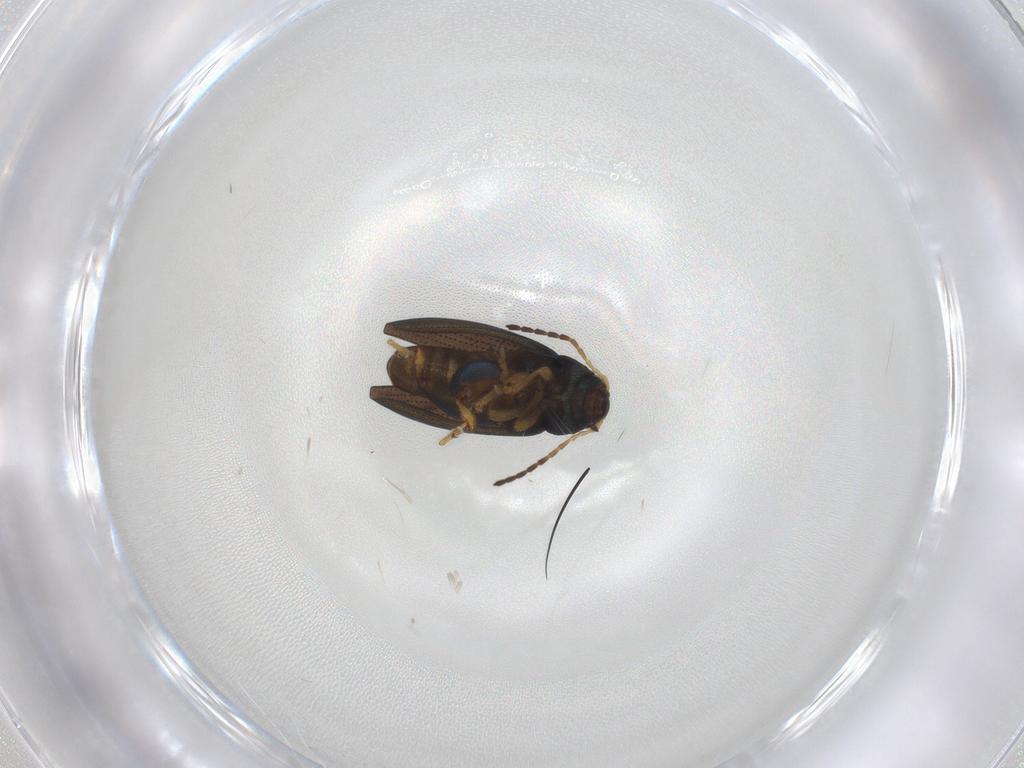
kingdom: Animalia
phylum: Arthropoda
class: Insecta
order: Coleoptera
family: Chrysomelidae
